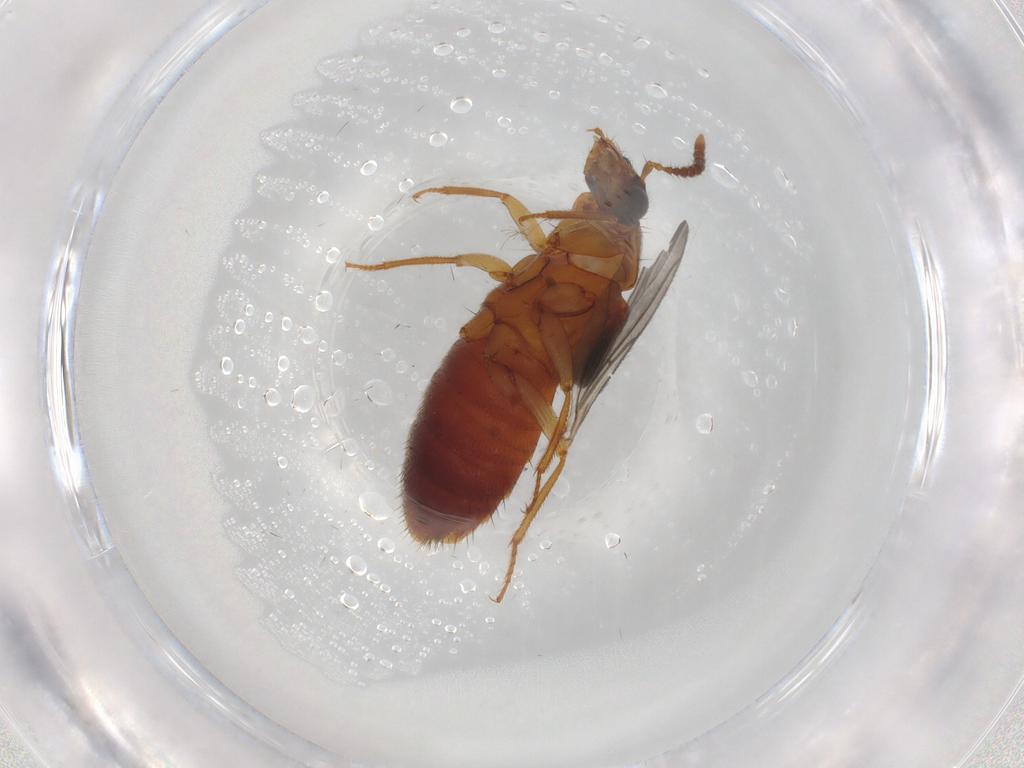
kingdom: Animalia
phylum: Arthropoda
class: Insecta
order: Coleoptera
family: Staphylinidae
